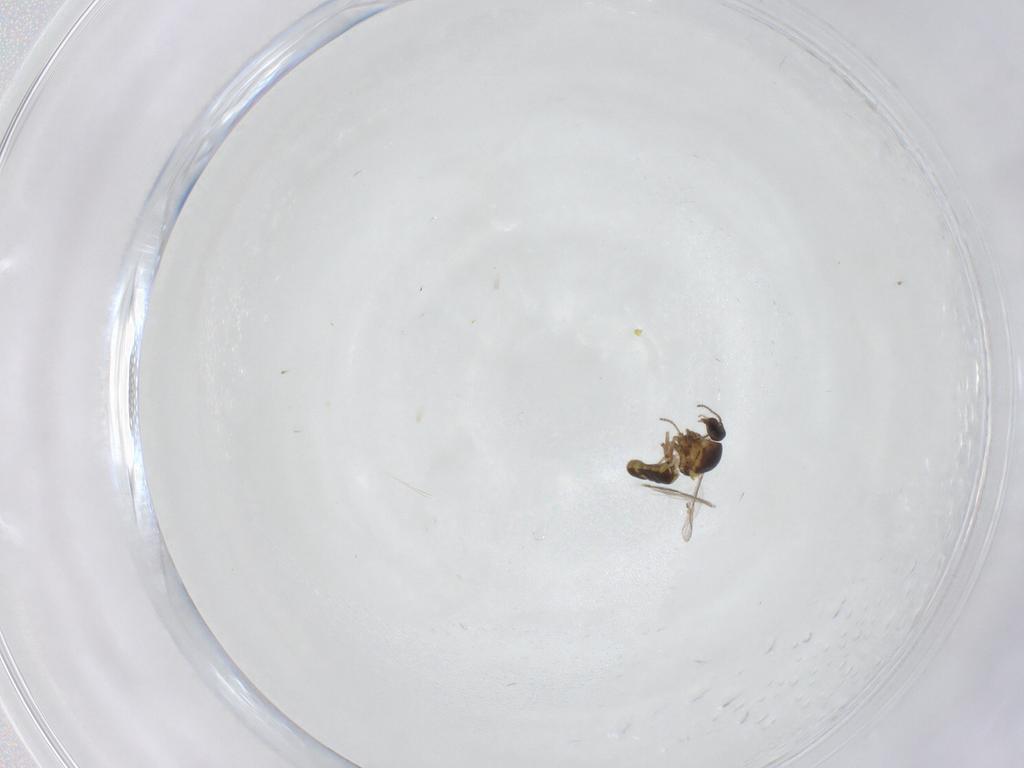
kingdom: Animalia
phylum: Arthropoda
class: Insecta
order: Diptera
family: Ceratopogonidae
